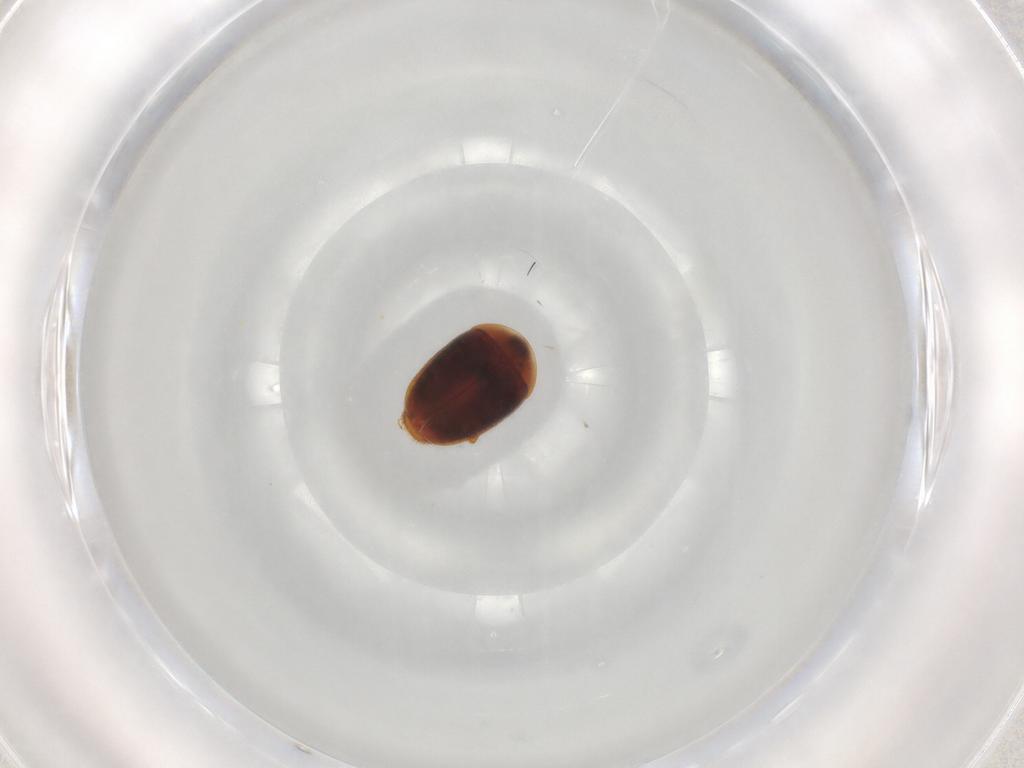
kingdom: Animalia
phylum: Arthropoda
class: Insecta
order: Coleoptera
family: Corylophidae
